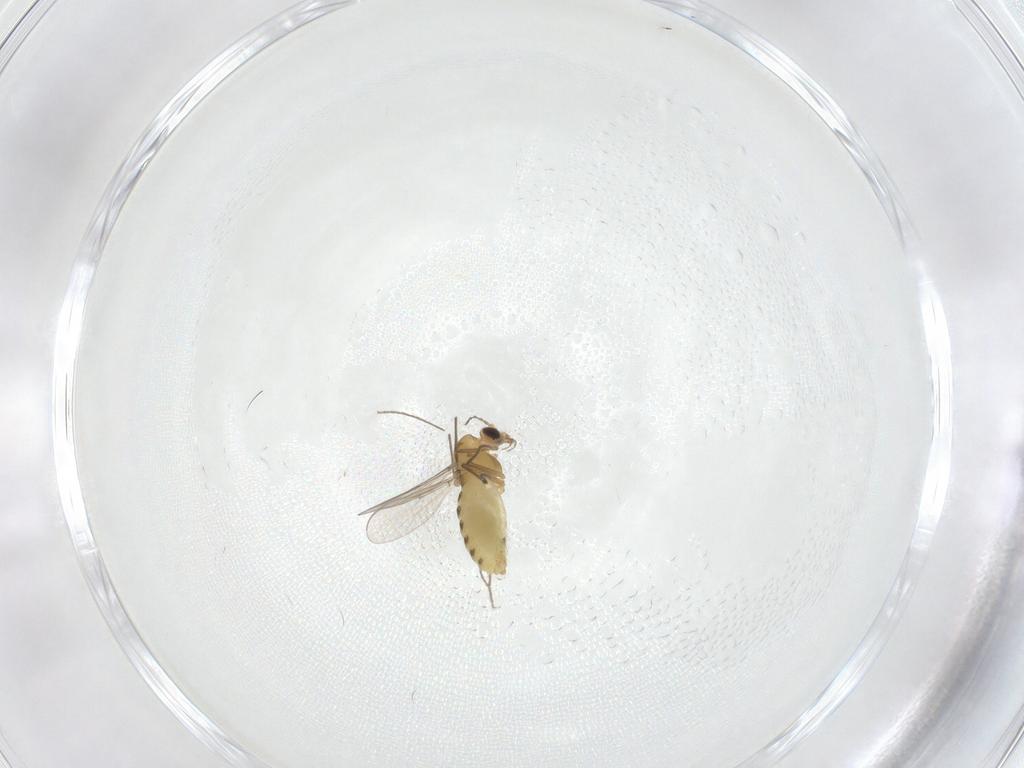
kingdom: Animalia
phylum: Arthropoda
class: Insecta
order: Diptera
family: Chironomidae
